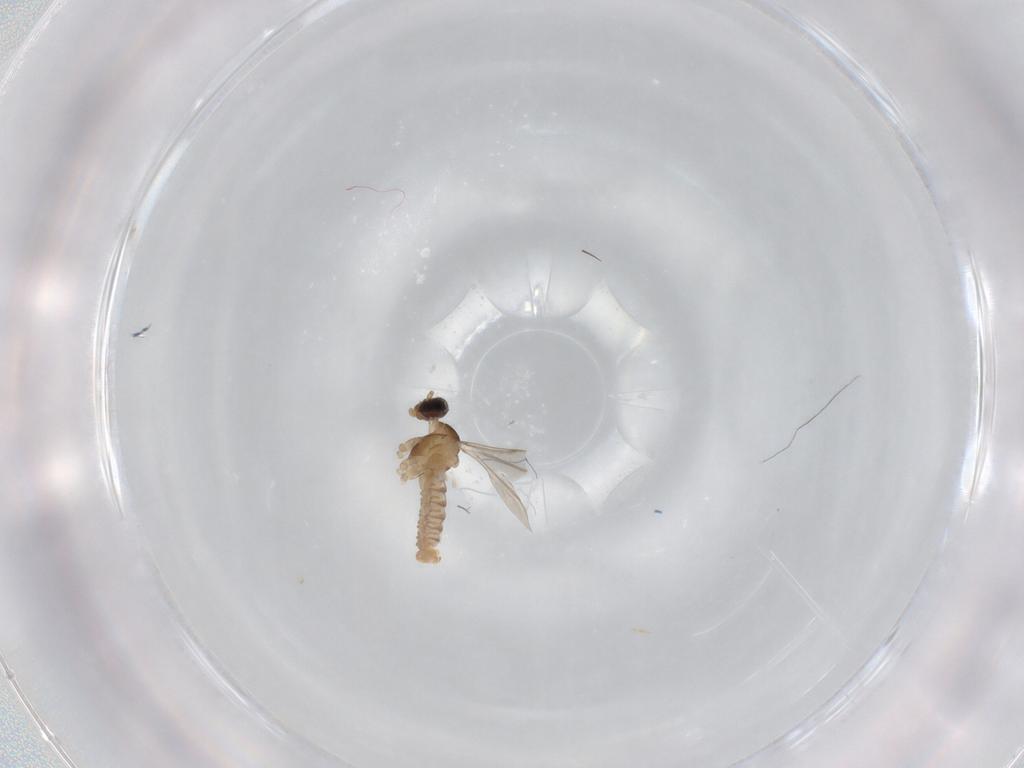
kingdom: Animalia
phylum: Arthropoda
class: Insecta
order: Diptera
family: Cecidomyiidae
